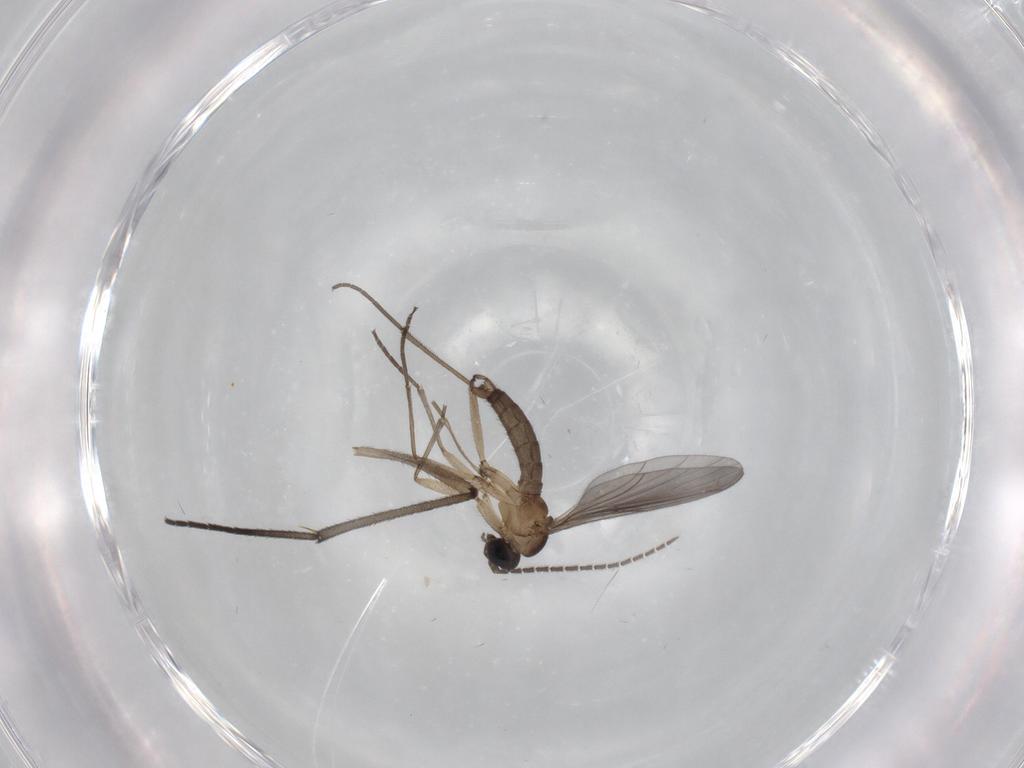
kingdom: Animalia
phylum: Arthropoda
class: Insecta
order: Diptera
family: Sciaridae
